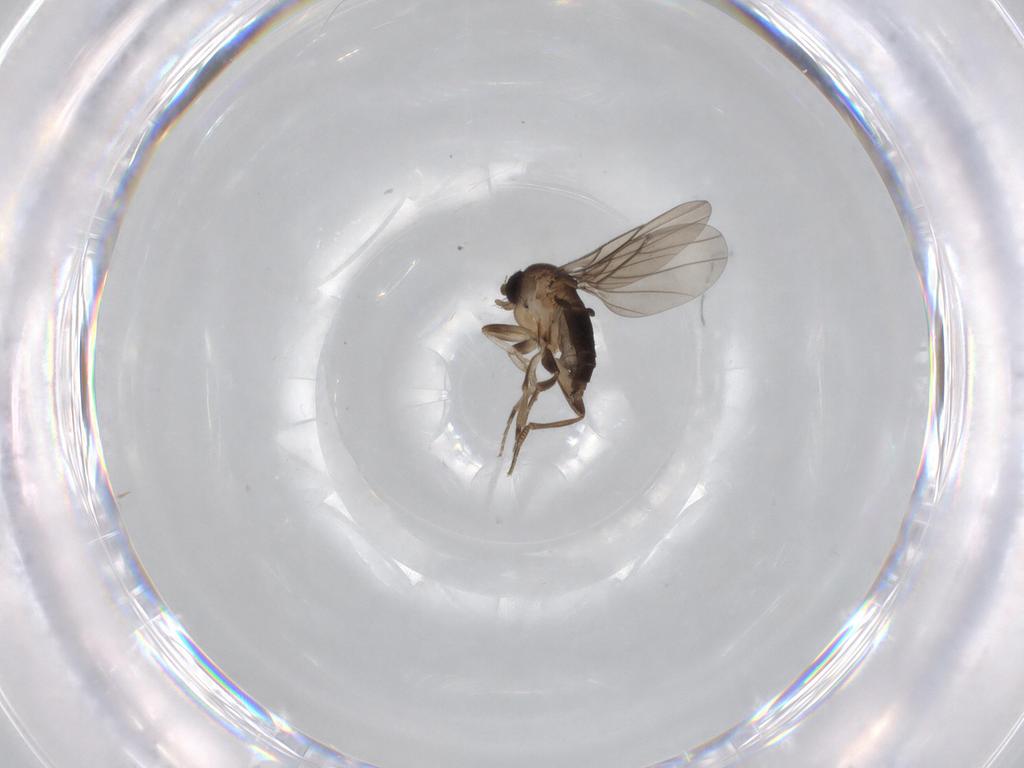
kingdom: Animalia
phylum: Arthropoda
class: Insecta
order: Diptera
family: Phoridae
